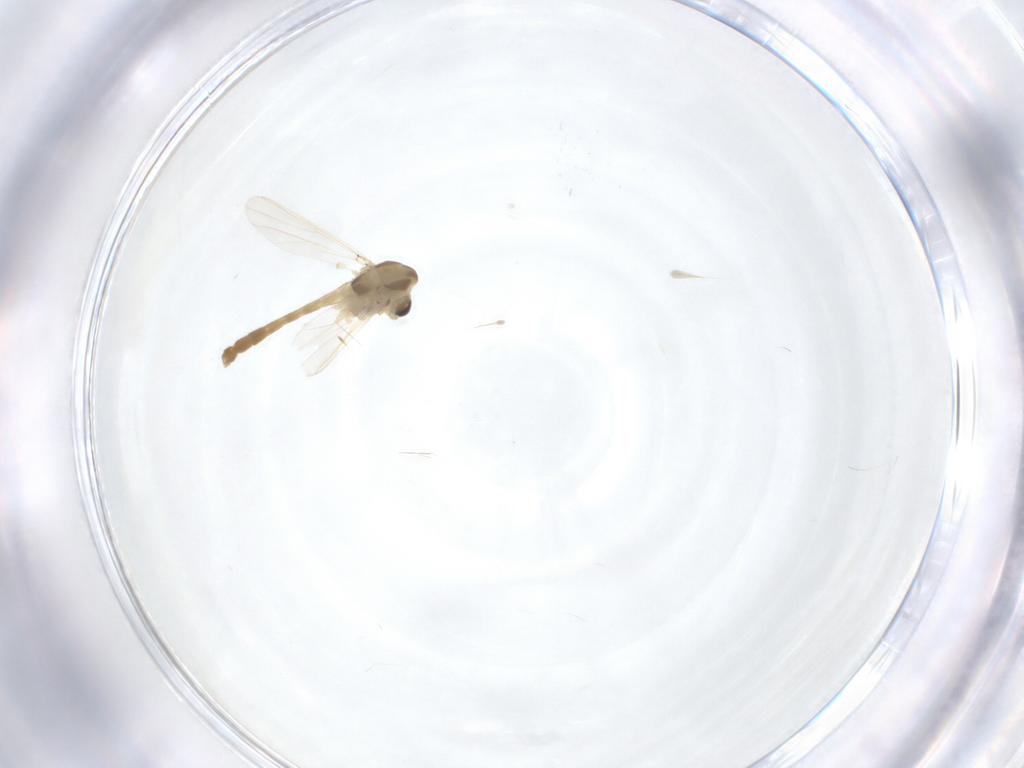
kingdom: Animalia
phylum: Arthropoda
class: Insecta
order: Diptera
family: Chironomidae
